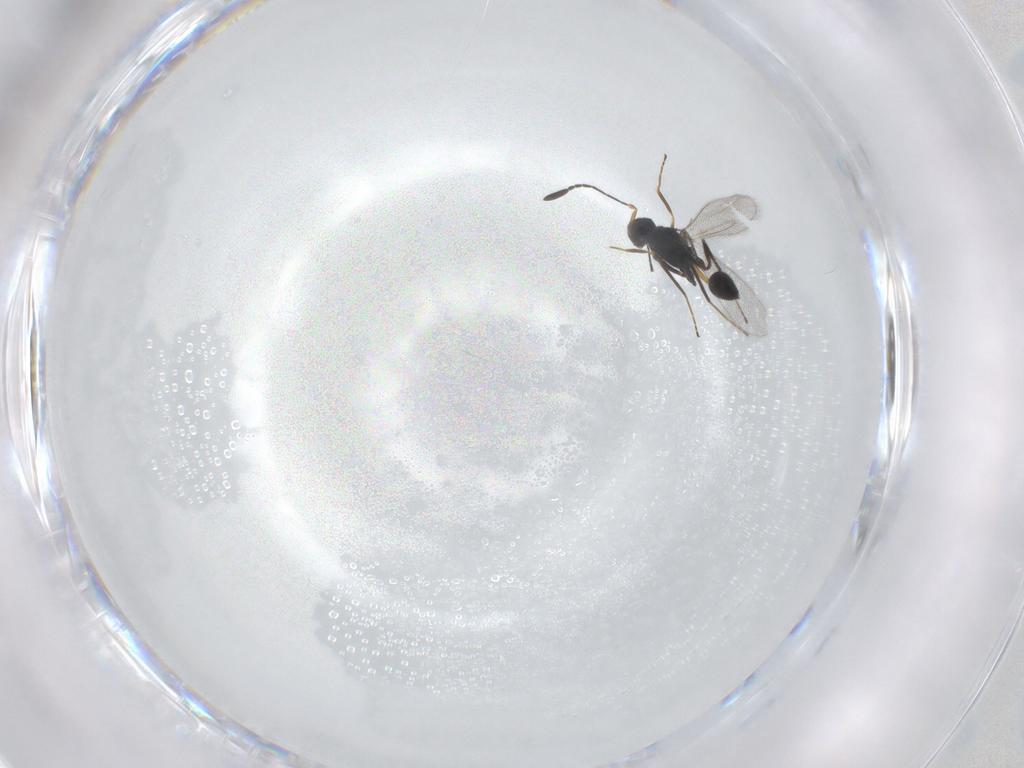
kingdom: Animalia
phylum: Arthropoda
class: Insecta
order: Hymenoptera
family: Mymaridae
